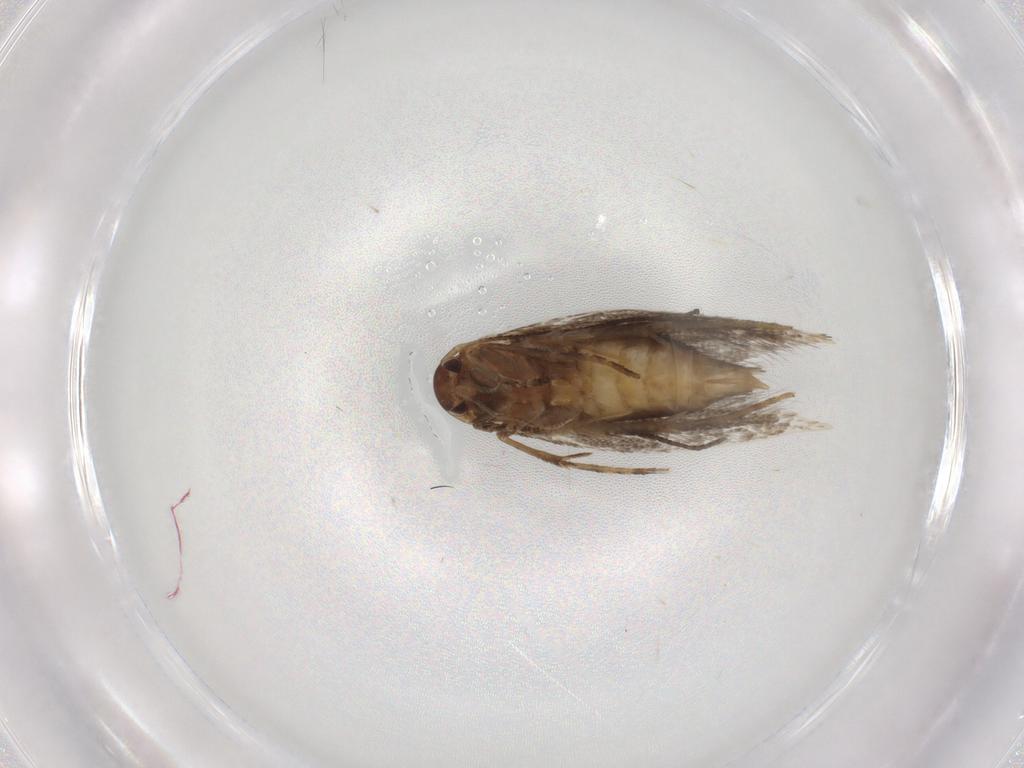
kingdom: Animalia
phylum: Arthropoda
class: Insecta
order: Lepidoptera
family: Elachistidae
